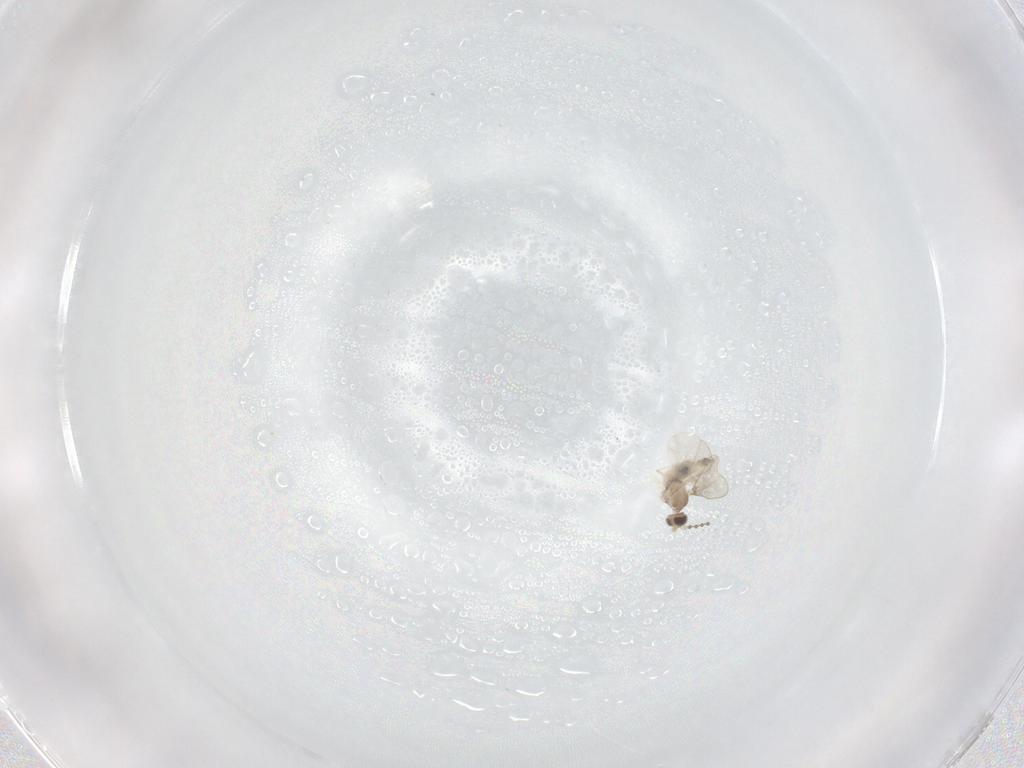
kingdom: Animalia
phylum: Arthropoda
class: Insecta
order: Diptera
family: Cecidomyiidae
